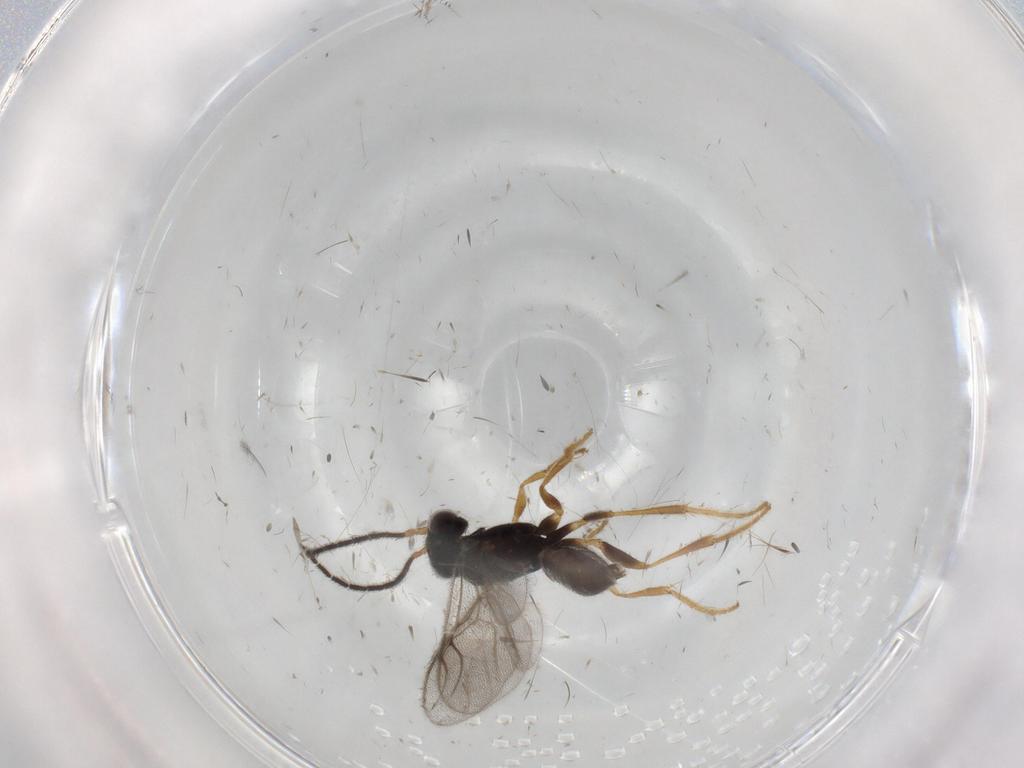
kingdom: Animalia
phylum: Arthropoda
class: Insecta
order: Hymenoptera
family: Dryinidae
